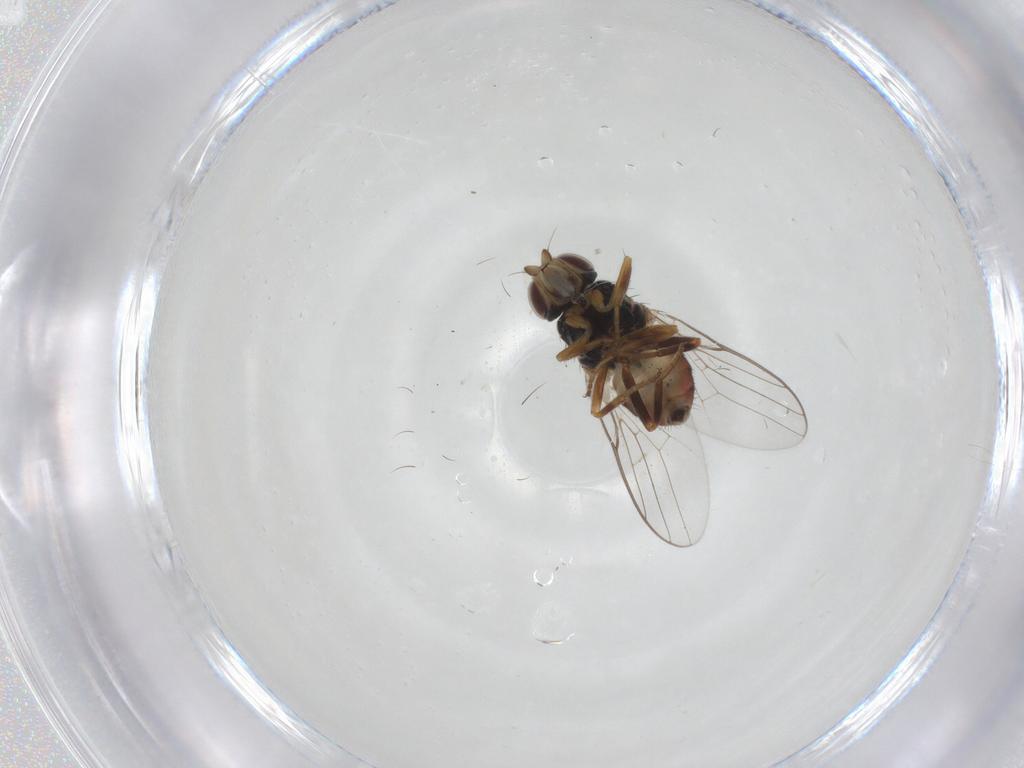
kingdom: Animalia
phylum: Arthropoda
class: Insecta
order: Diptera
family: Chloropidae
